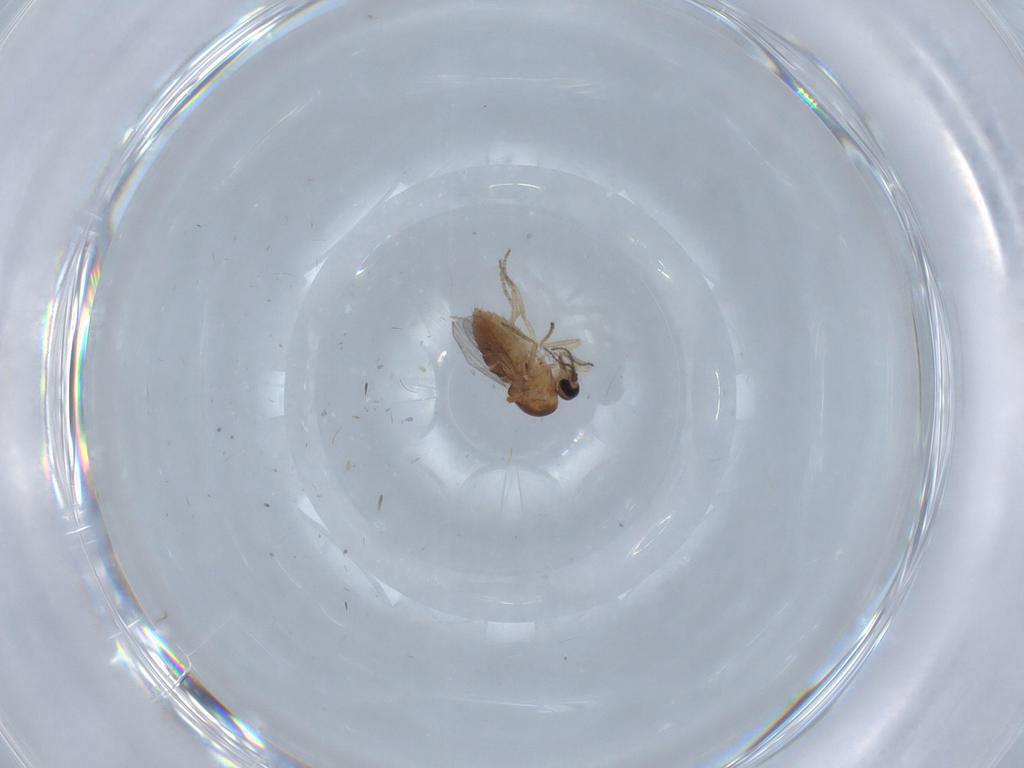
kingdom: Animalia
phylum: Arthropoda
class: Insecta
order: Diptera
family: Ceratopogonidae
